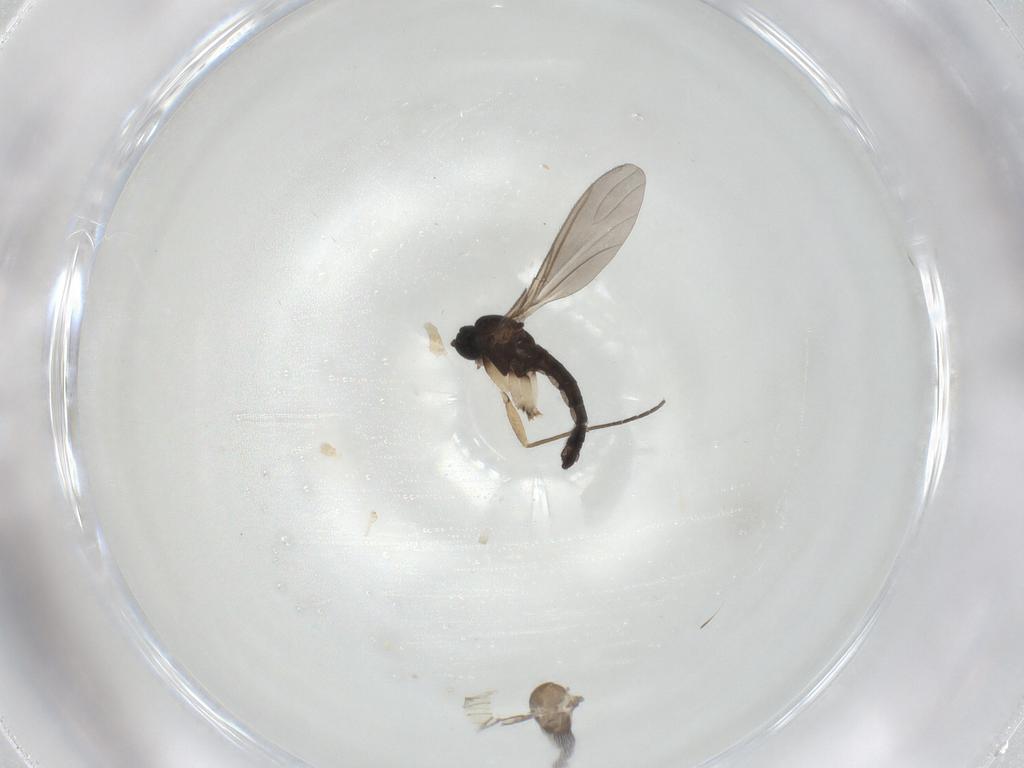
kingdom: Animalia
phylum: Arthropoda
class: Insecta
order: Diptera
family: Sciaridae
